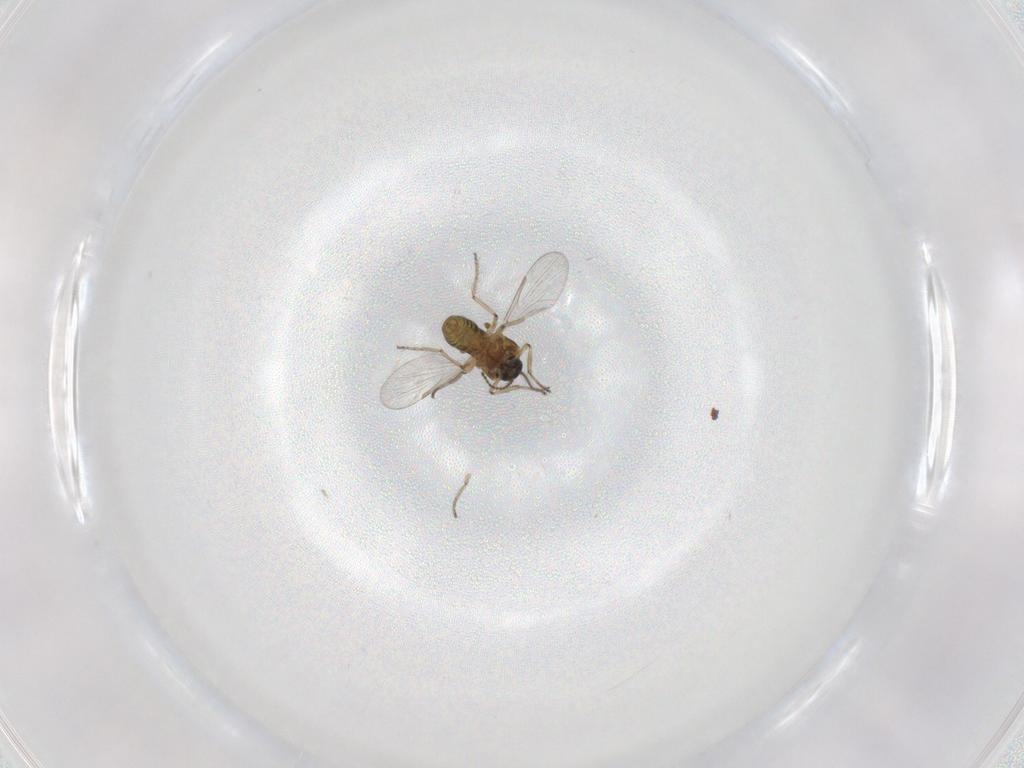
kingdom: Animalia
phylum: Arthropoda
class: Insecta
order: Diptera
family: Ceratopogonidae
